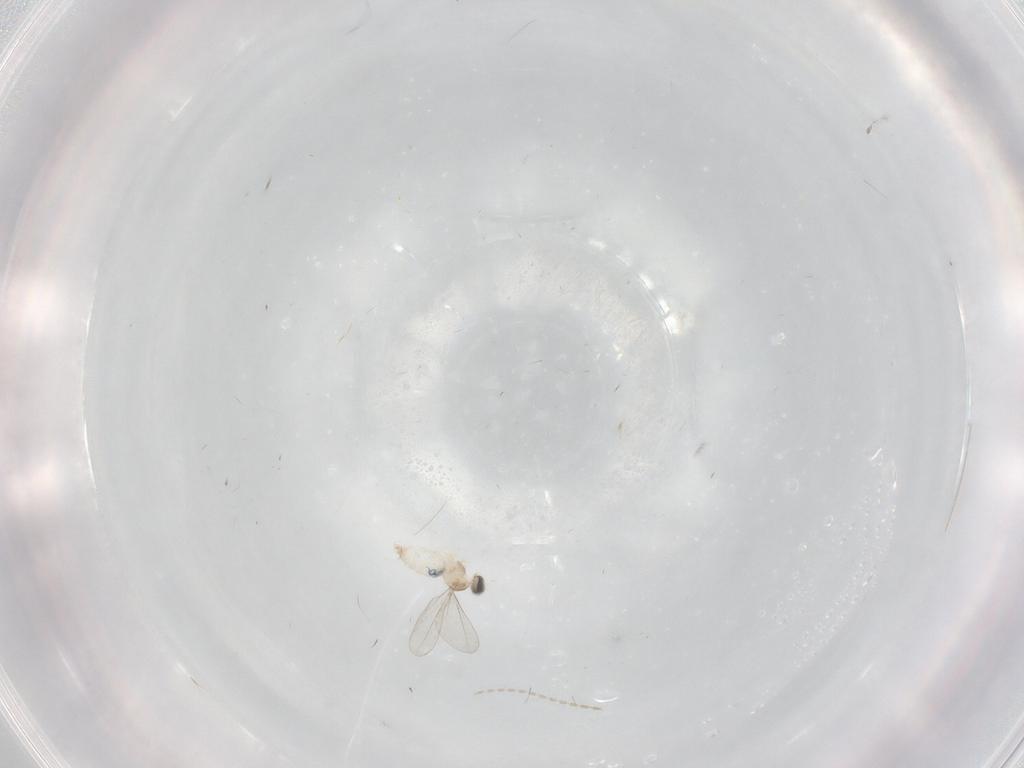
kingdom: Animalia
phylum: Arthropoda
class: Insecta
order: Diptera
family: Cecidomyiidae
